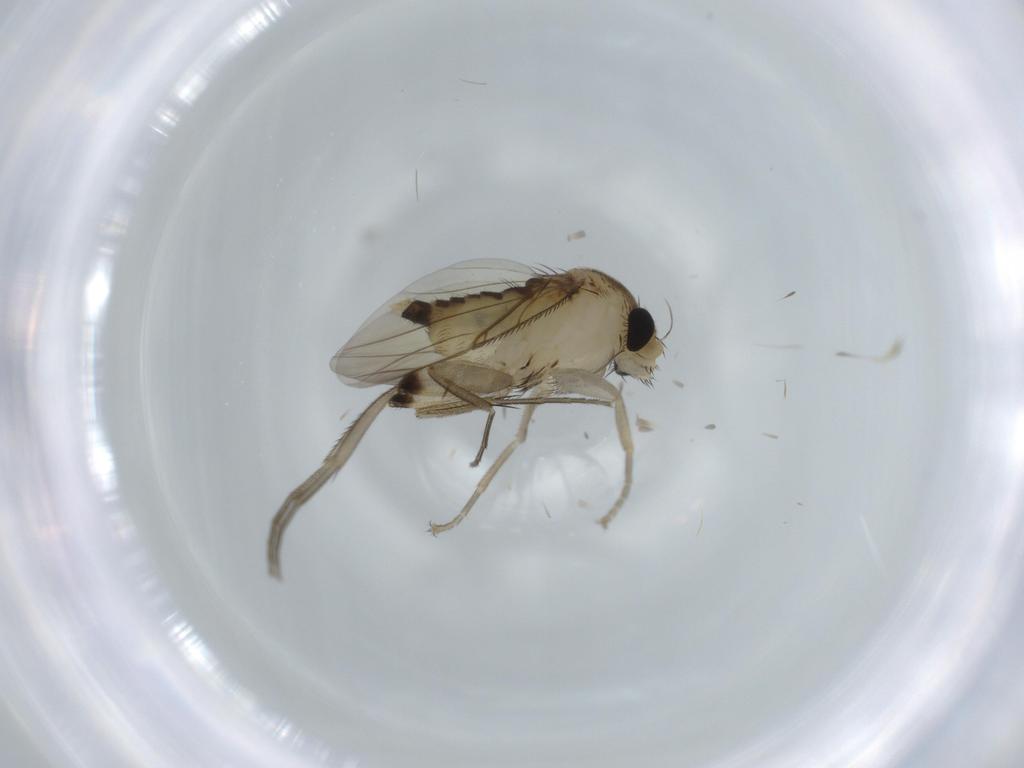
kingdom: Animalia
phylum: Arthropoda
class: Insecta
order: Diptera
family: Phoridae
